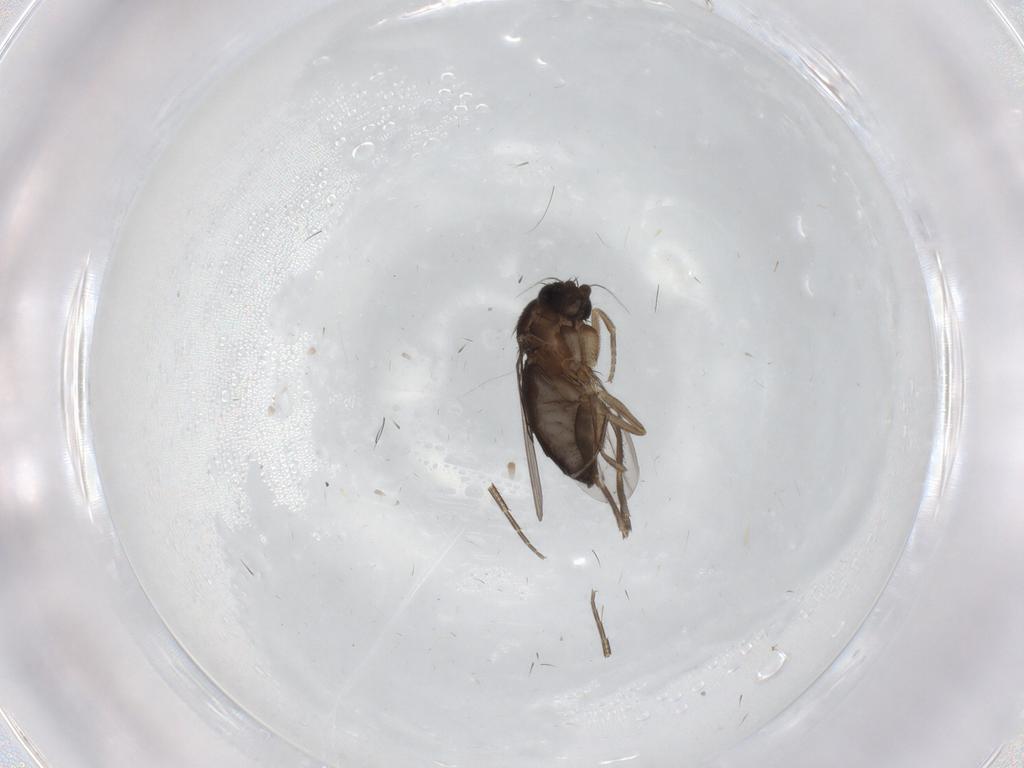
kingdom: Animalia
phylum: Arthropoda
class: Insecta
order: Diptera
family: Phoridae
